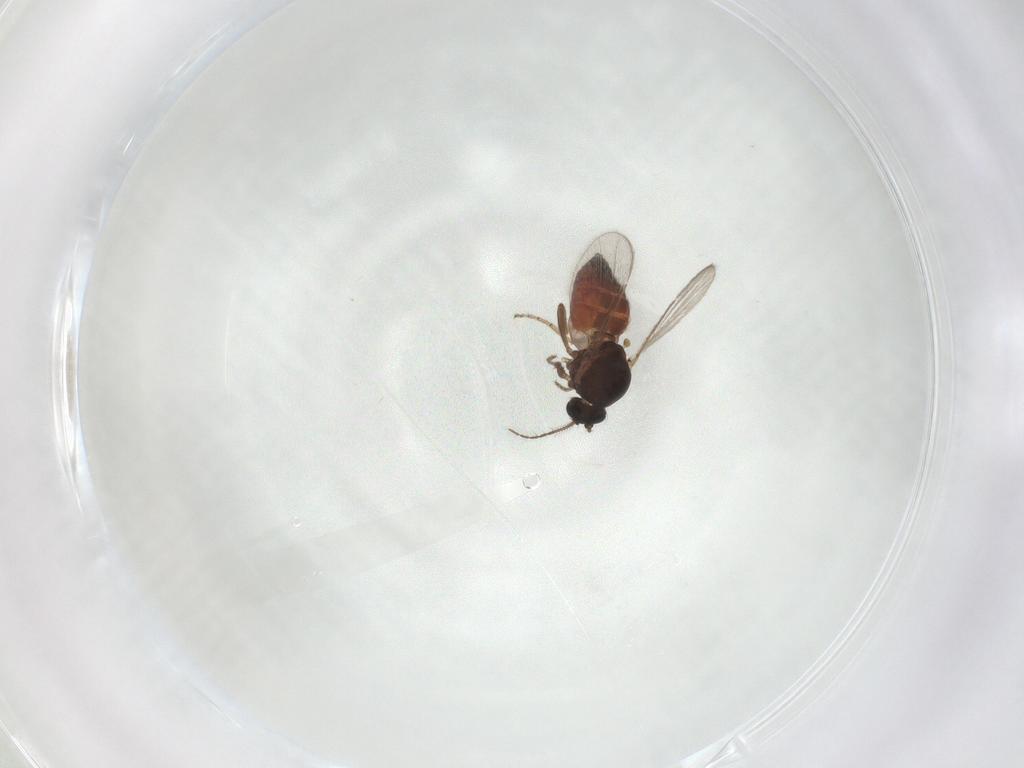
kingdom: Animalia
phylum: Arthropoda
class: Insecta
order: Diptera
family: Ceratopogonidae
